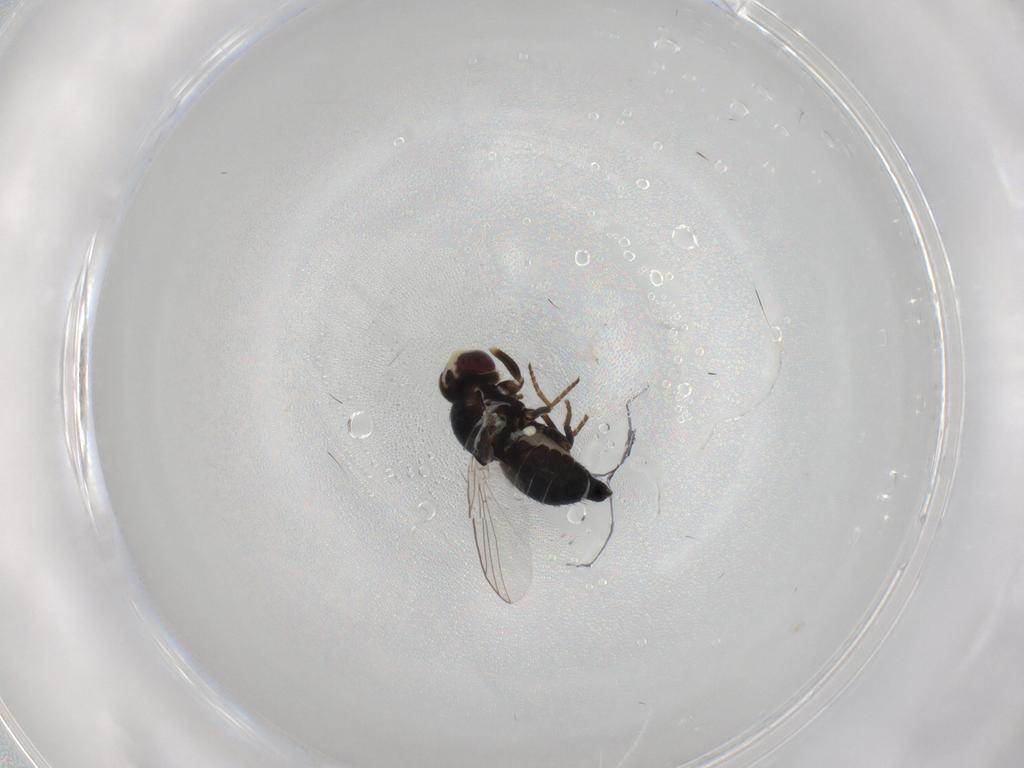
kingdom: Animalia
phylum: Arthropoda
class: Insecta
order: Diptera
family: Agromyzidae
